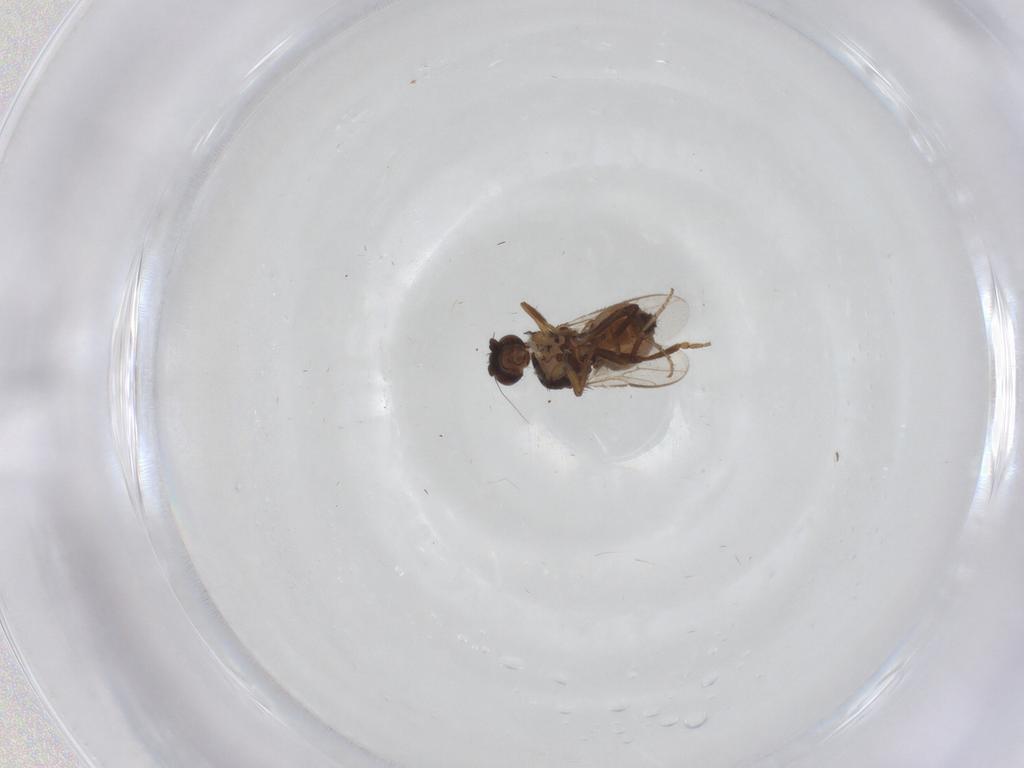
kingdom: Animalia
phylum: Arthropoda
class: Insecta
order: Diptera
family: Sphaeroceridae
